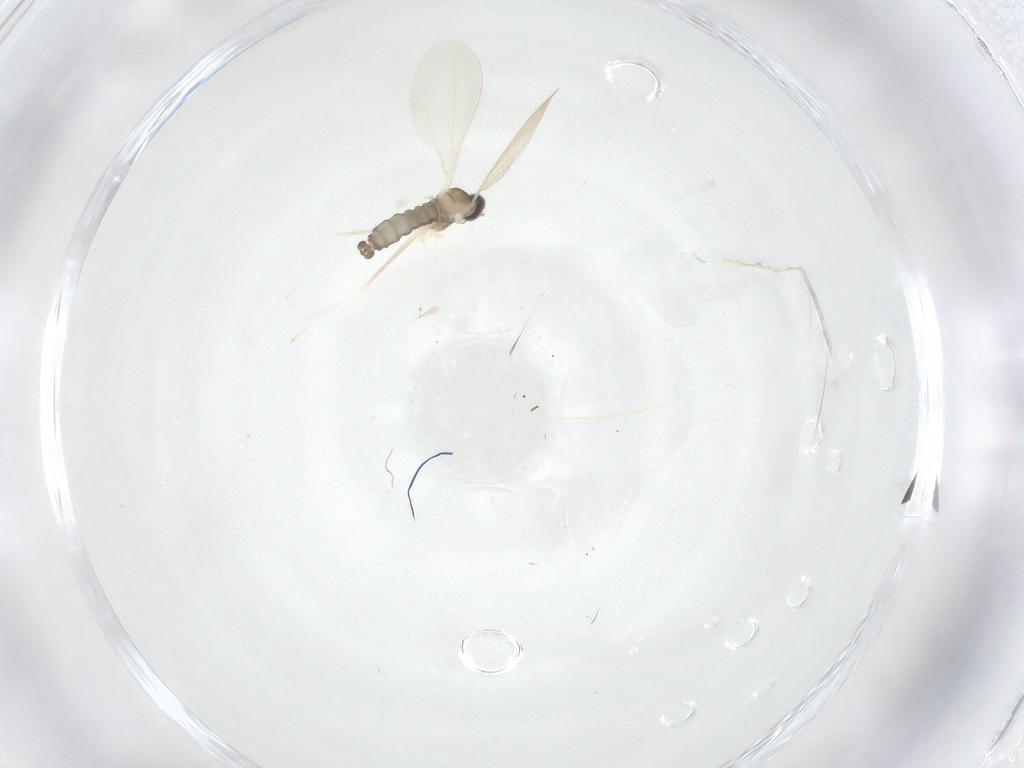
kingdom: Animalia
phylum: Arthropoda
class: Insecta
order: Diptera
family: Cecidomyiidae
